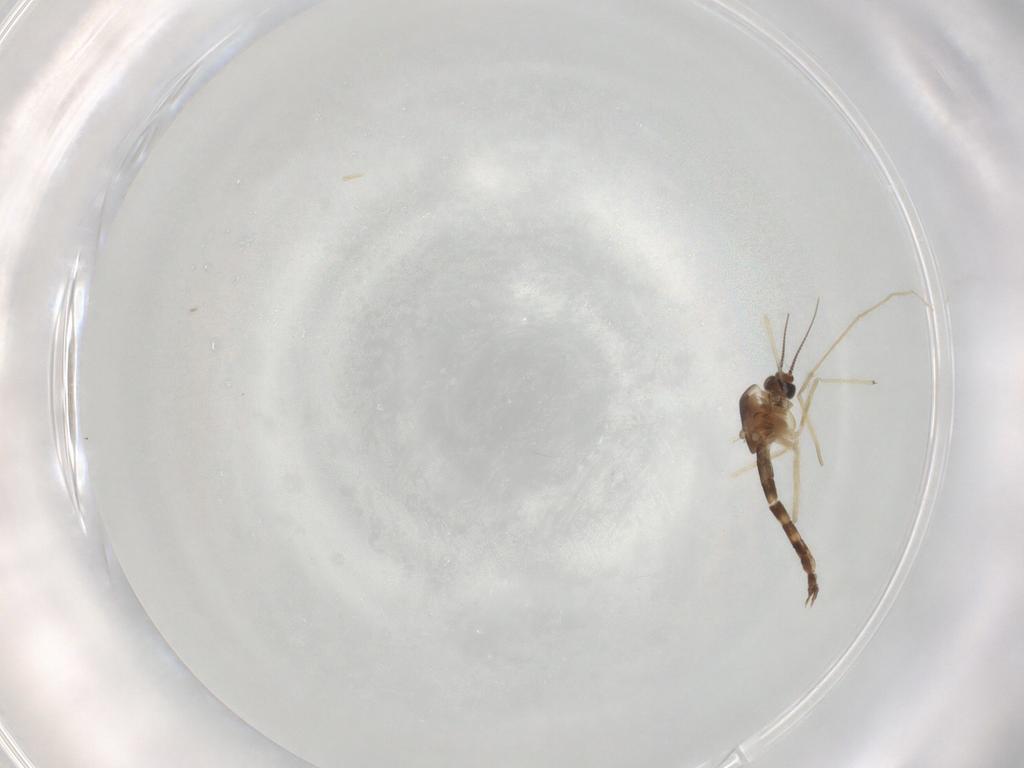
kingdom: Animalia
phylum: Arthropoda
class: Insecta
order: Diptera
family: Chironomidae
